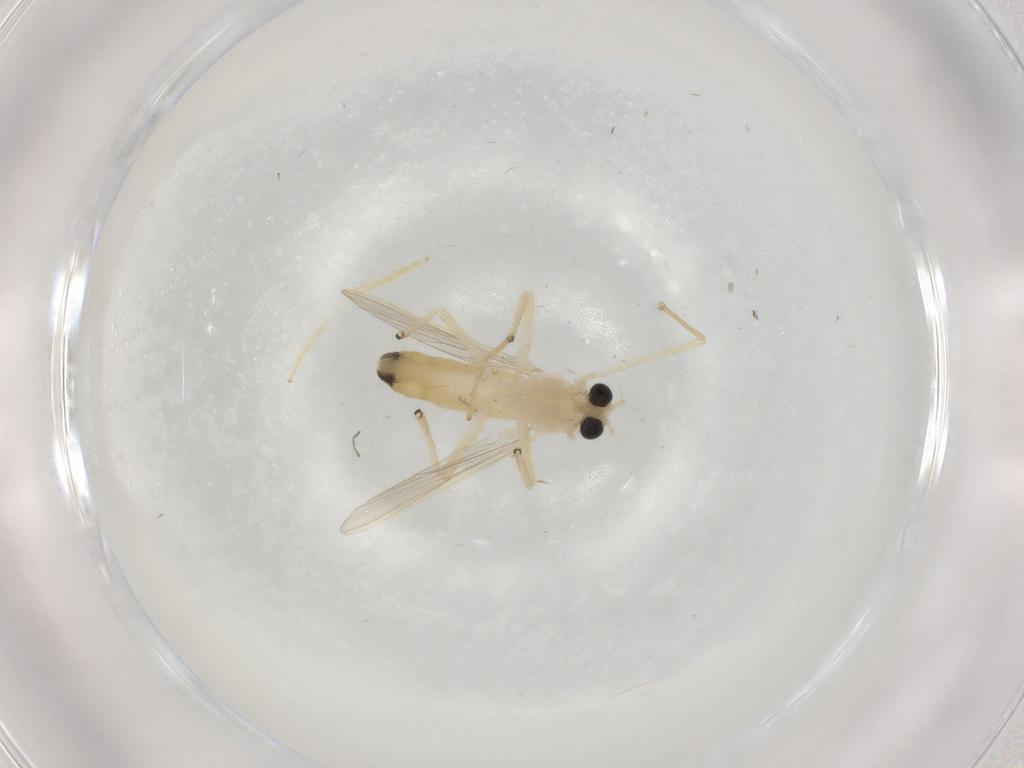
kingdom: Animalia
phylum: Arthropoda
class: Insecta
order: Diptera
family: Chironomidae
